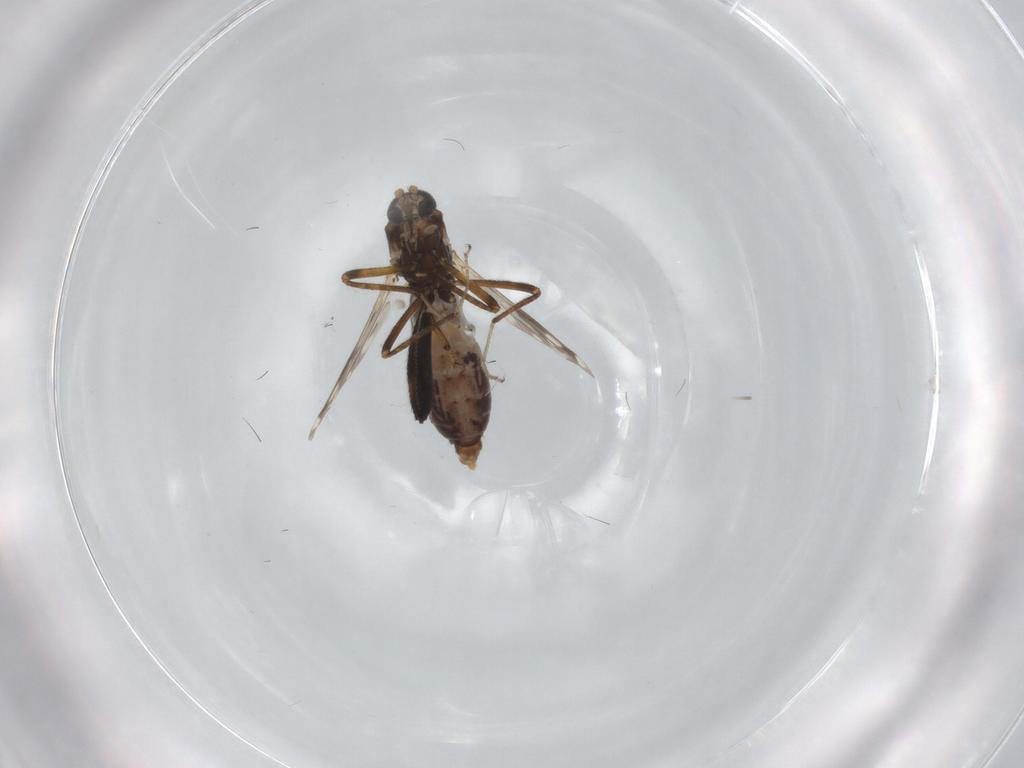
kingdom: Animalia
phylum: Arthropoda
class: Insecta
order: Diptera
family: Ceratopogonidae
